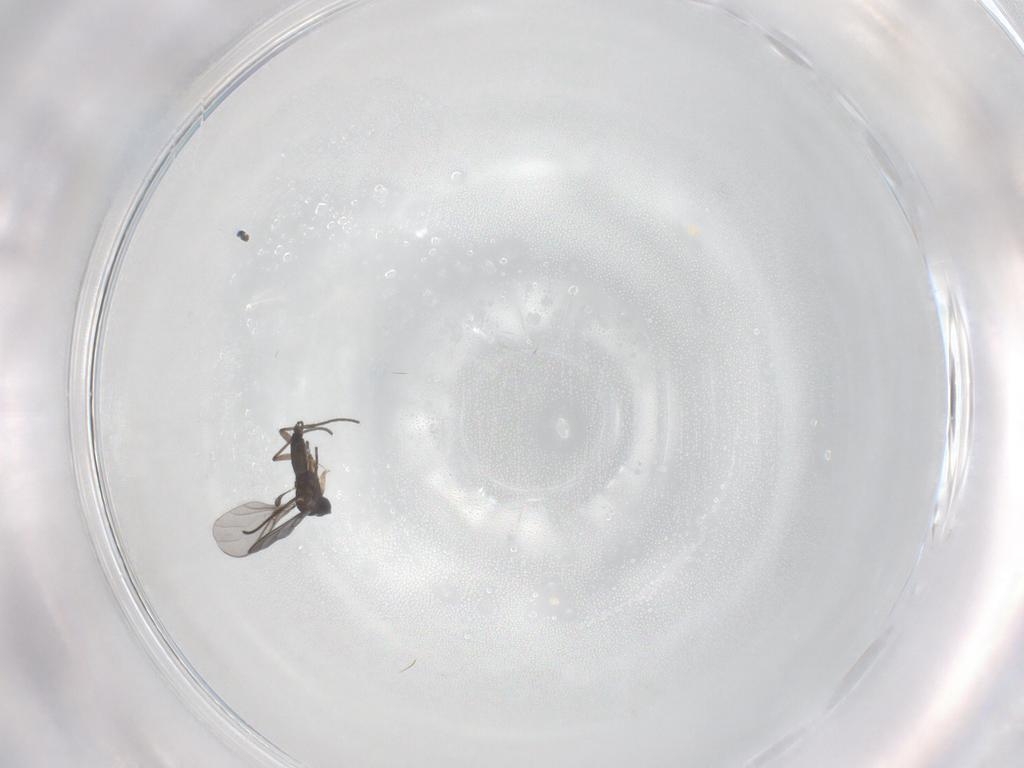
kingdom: Animalia
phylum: Arthropoda
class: Insecta
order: Diptera
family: Sciaridae
